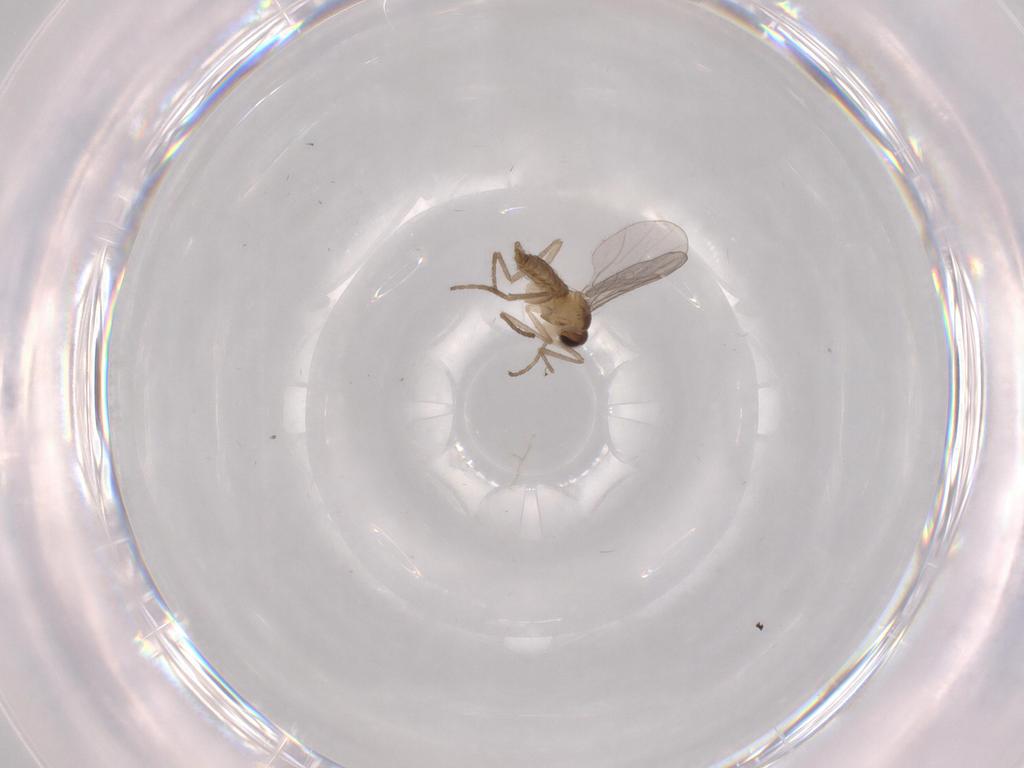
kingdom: Animalia
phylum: Arthropoda
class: Insecta
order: Diptera
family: Cecidomyiidae
